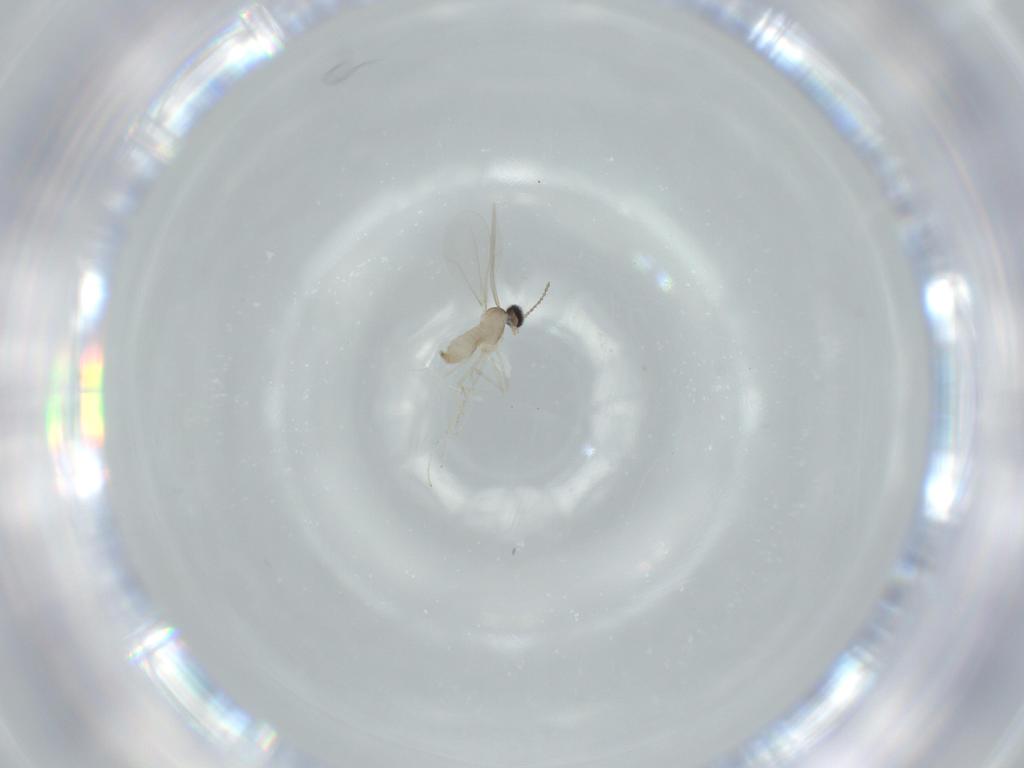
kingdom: Animalia
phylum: Arthropoda
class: Insecta
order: Diptera
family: Cecidomyiidae
